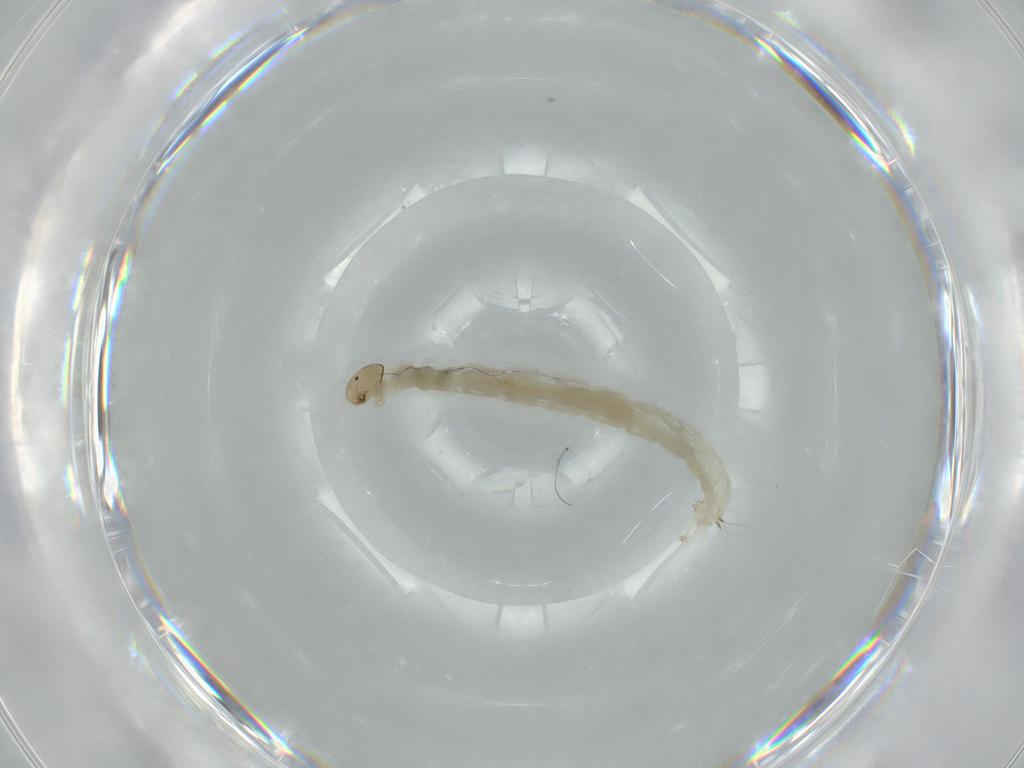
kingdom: Animalia
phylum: Arthropoda
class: Insecta
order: Diptera
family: Chironomidae
